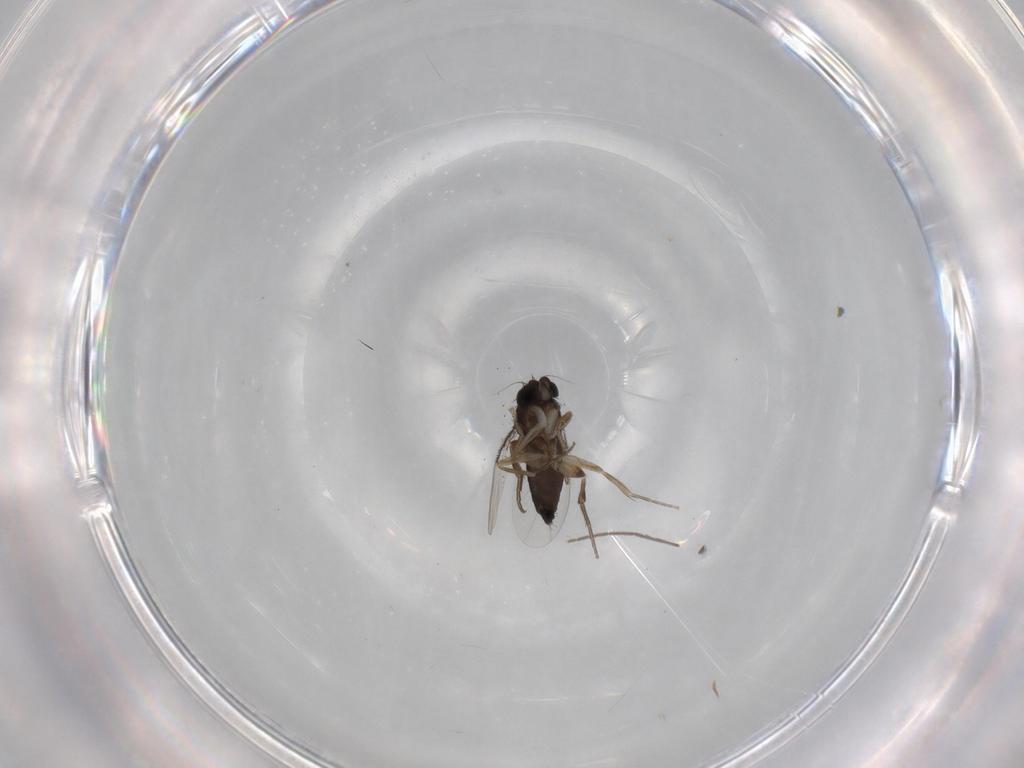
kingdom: Animalia
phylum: Arthropoda
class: Insecta
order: Diptera
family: Phoridae
